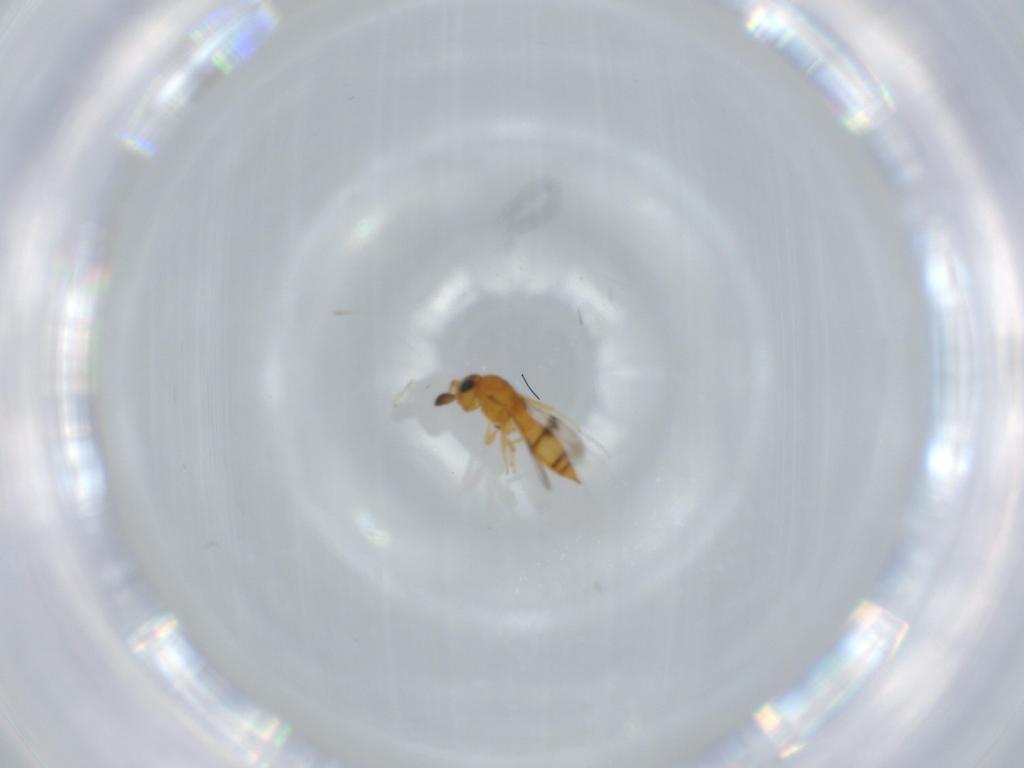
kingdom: Animalia
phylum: Arthropoda
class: Insecta
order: Hymenoptera
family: Scelionidae
